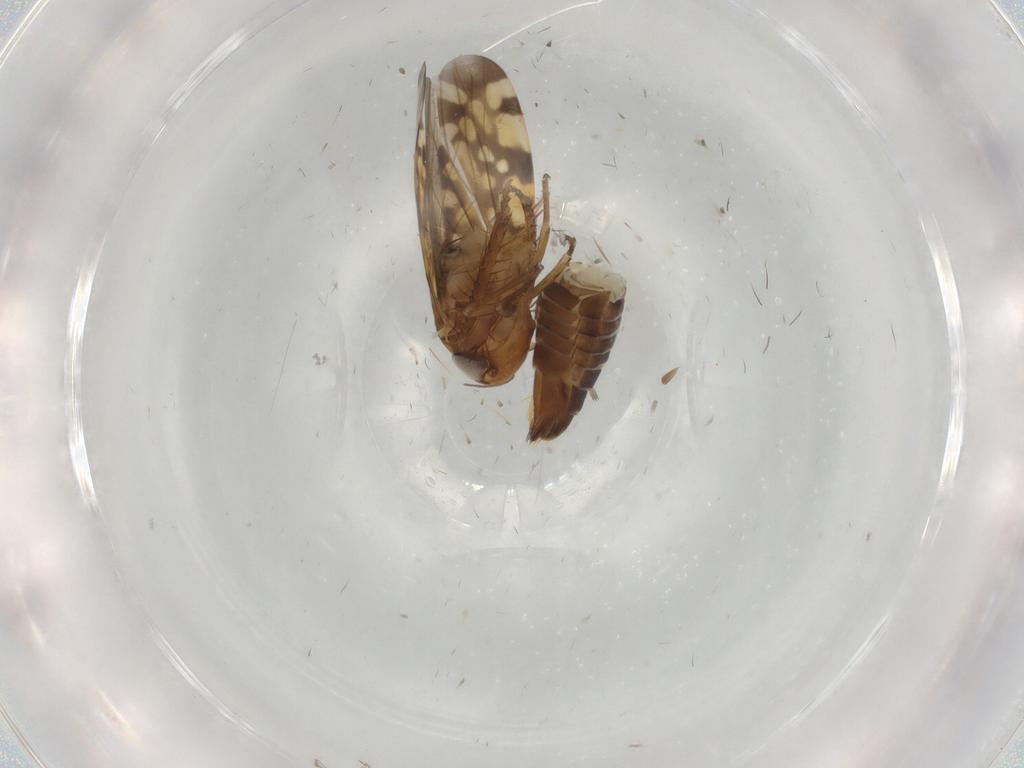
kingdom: Animalia
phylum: Arthropoda
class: Insecta
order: Hemiptera
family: Cicadellidae
